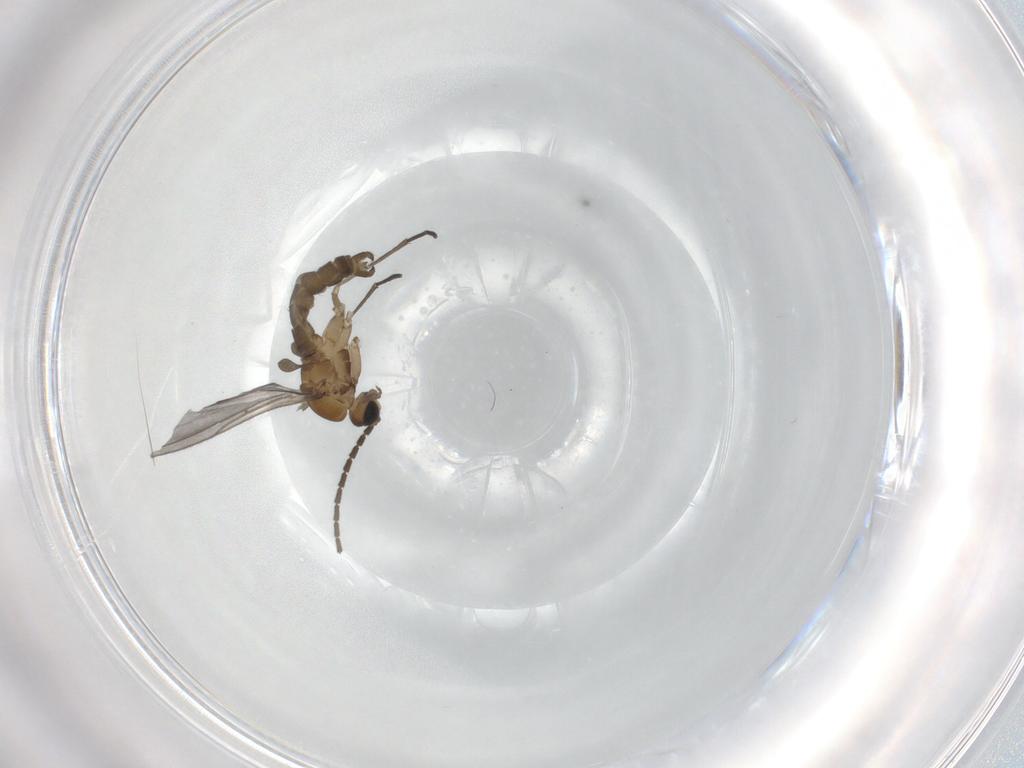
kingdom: Animalia
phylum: Arthropoda
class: Insecta
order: Diptera
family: Sciaridae
